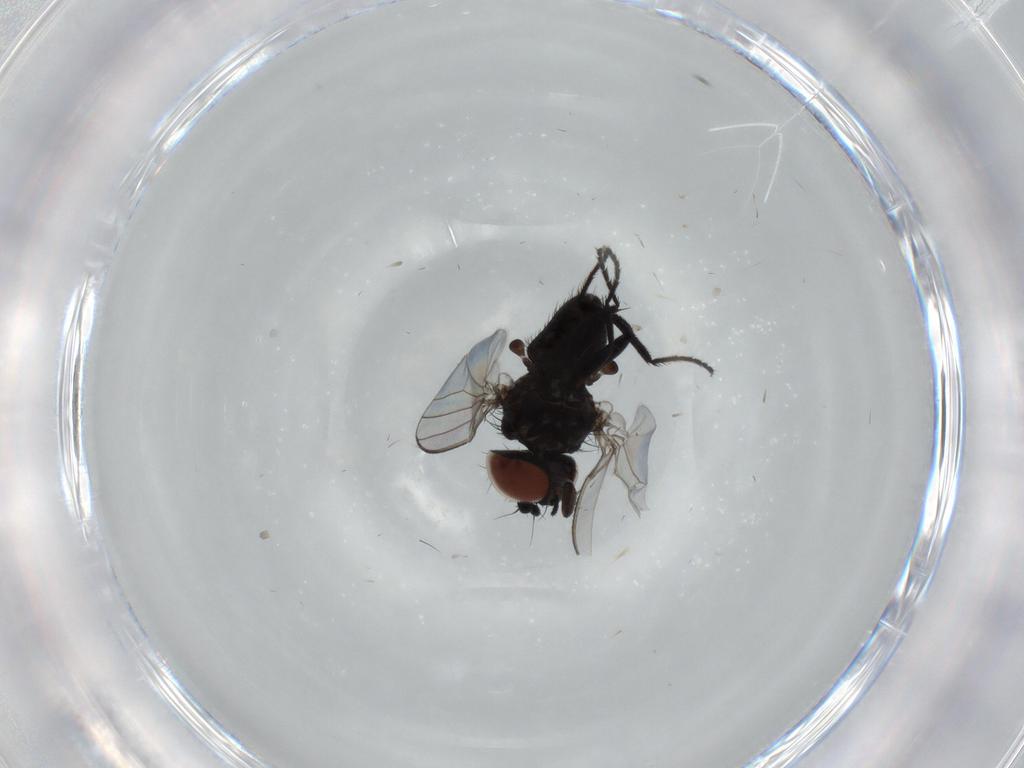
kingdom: Animalia
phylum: Arthropoda
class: Insecta
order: Diptera
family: Milichiidae
